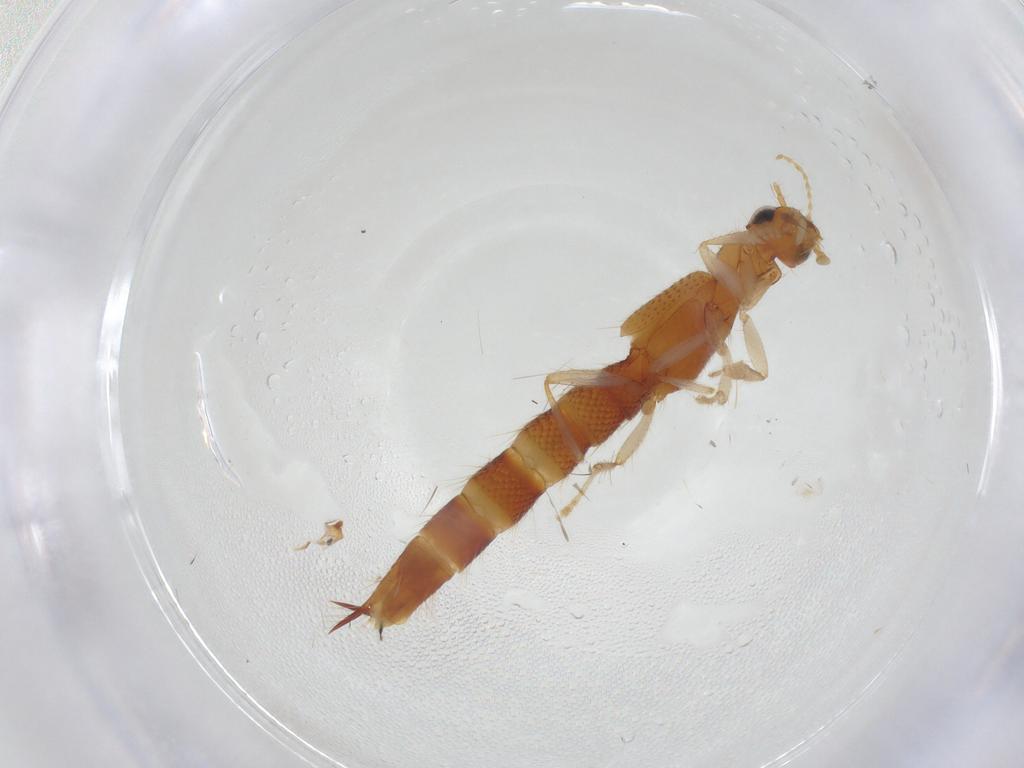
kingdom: Animalia
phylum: Arthropoda
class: Insecta
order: Coleoptera
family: Staphylinidae
